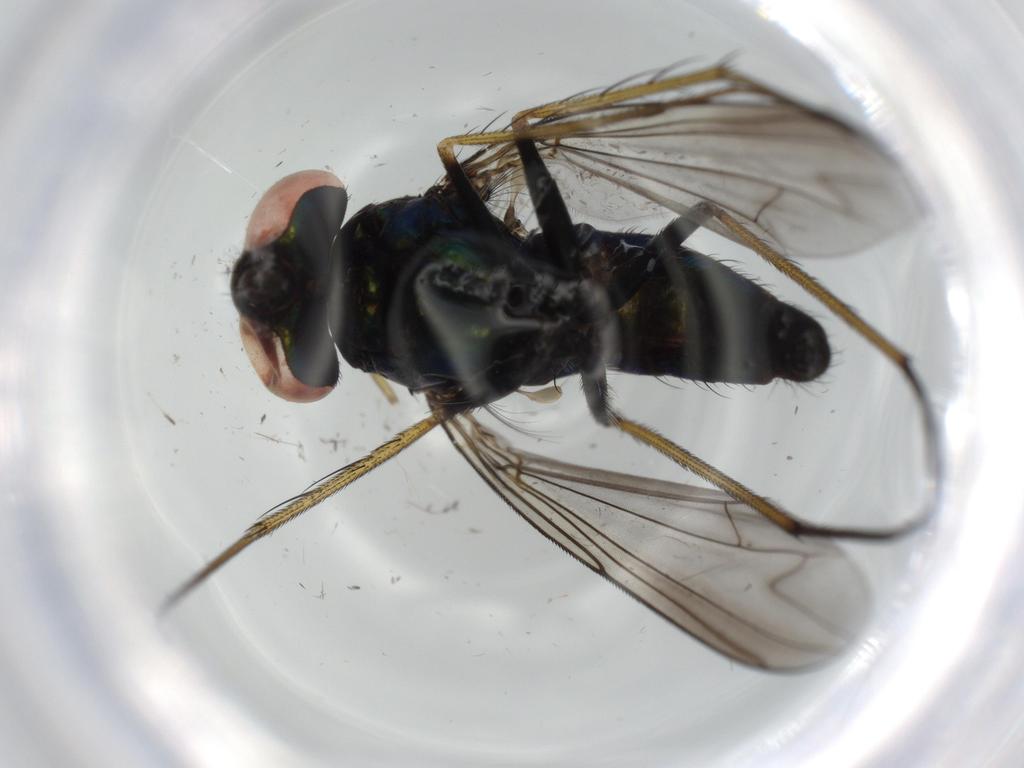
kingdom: Animalia
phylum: Arthropoda
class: Insecta
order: Diptera
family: Dolichopodidae
